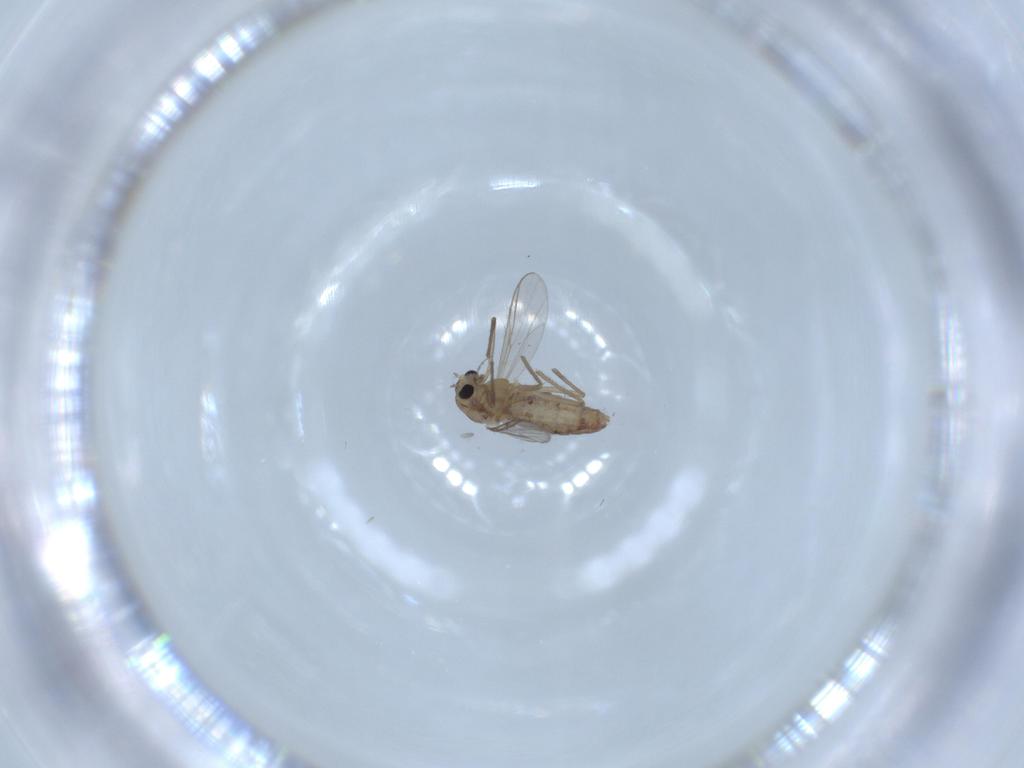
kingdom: Animalia
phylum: Arthropoda
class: Insecta
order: Diptera
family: Chironomidae
